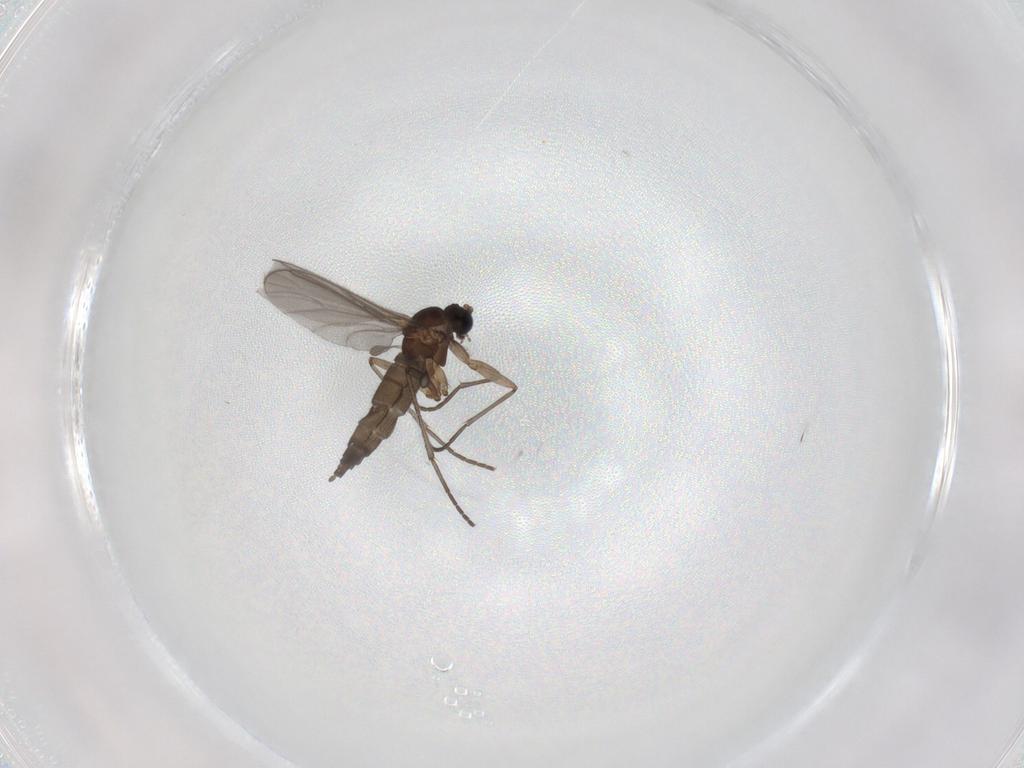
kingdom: Animalia
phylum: Arthropoda
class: Insecta
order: Diptera
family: Sciaridae
